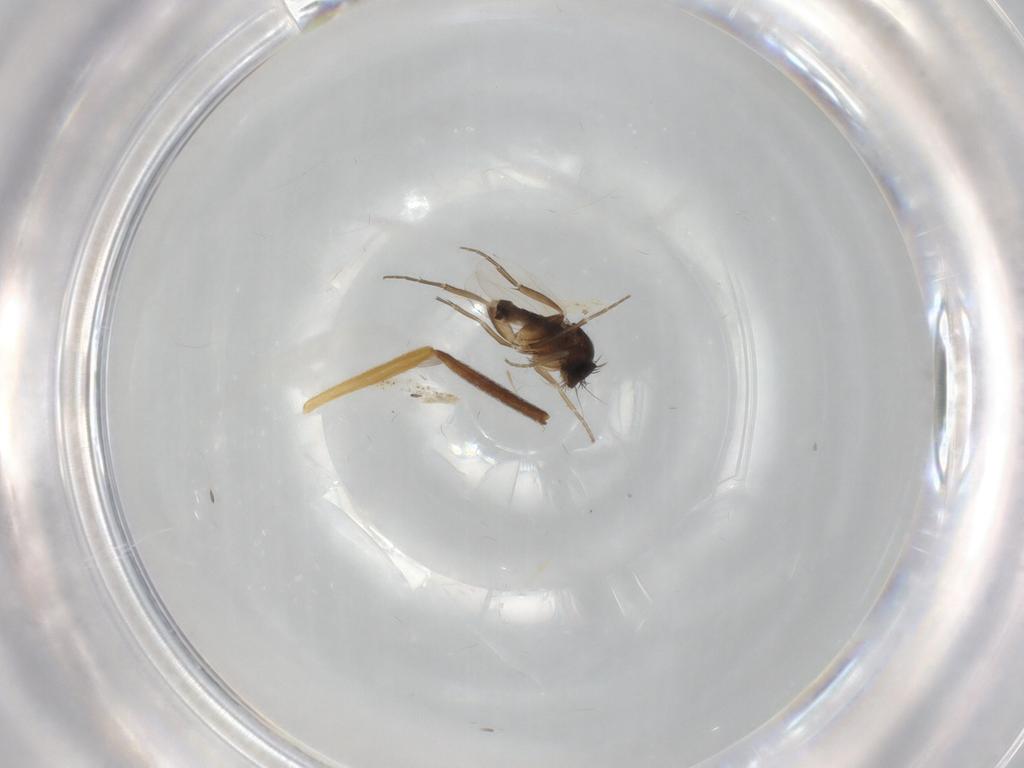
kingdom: Animalia
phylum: Arthropoda
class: Insecta
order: Diptera
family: Phoridae
